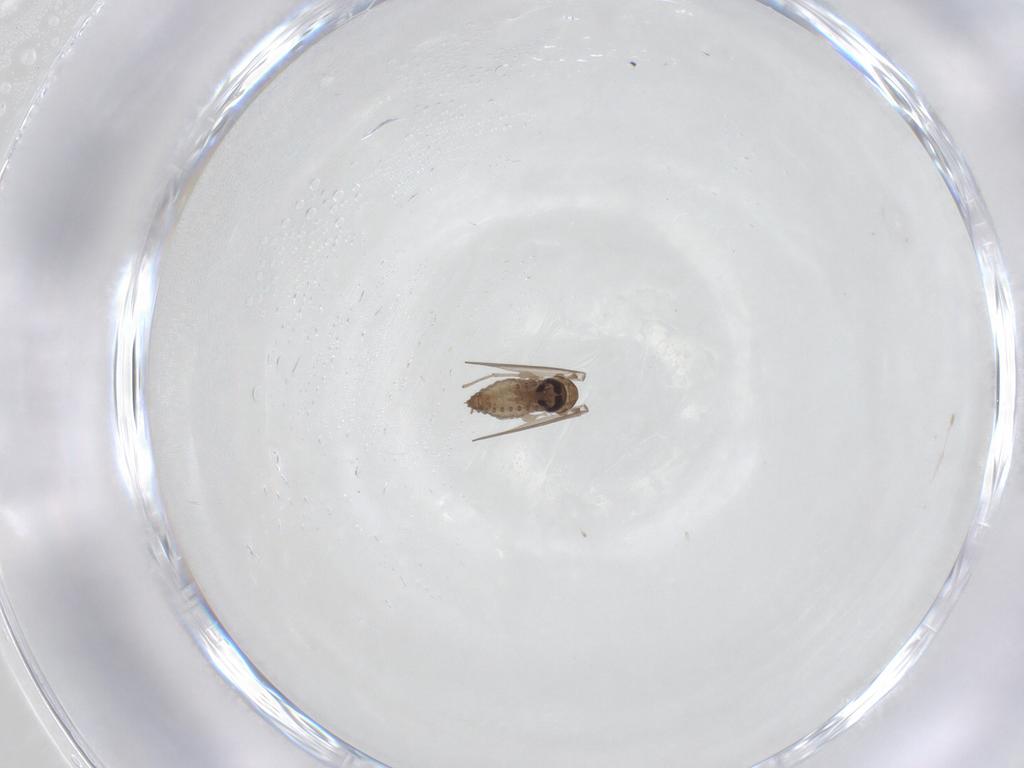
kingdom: Animalia
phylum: Arthropoda
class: Insecta
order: Diptera
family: Psychodidae
